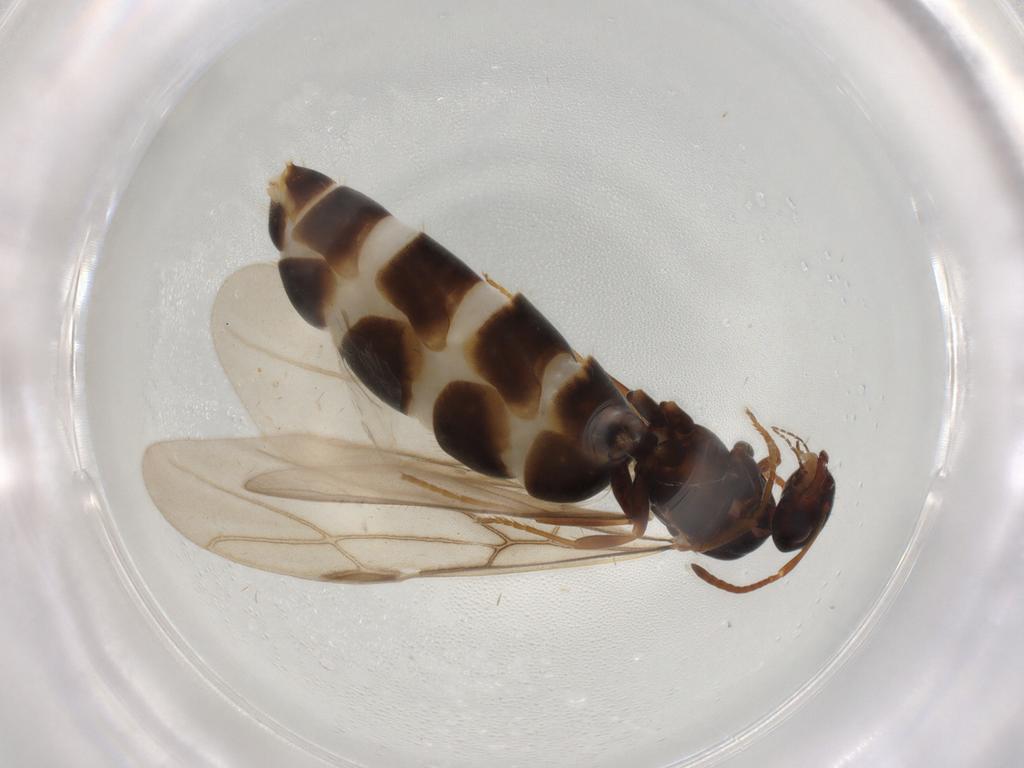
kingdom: Animalia
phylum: Arthropoda
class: Insecta
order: Hymenoptera
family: Formicidae
